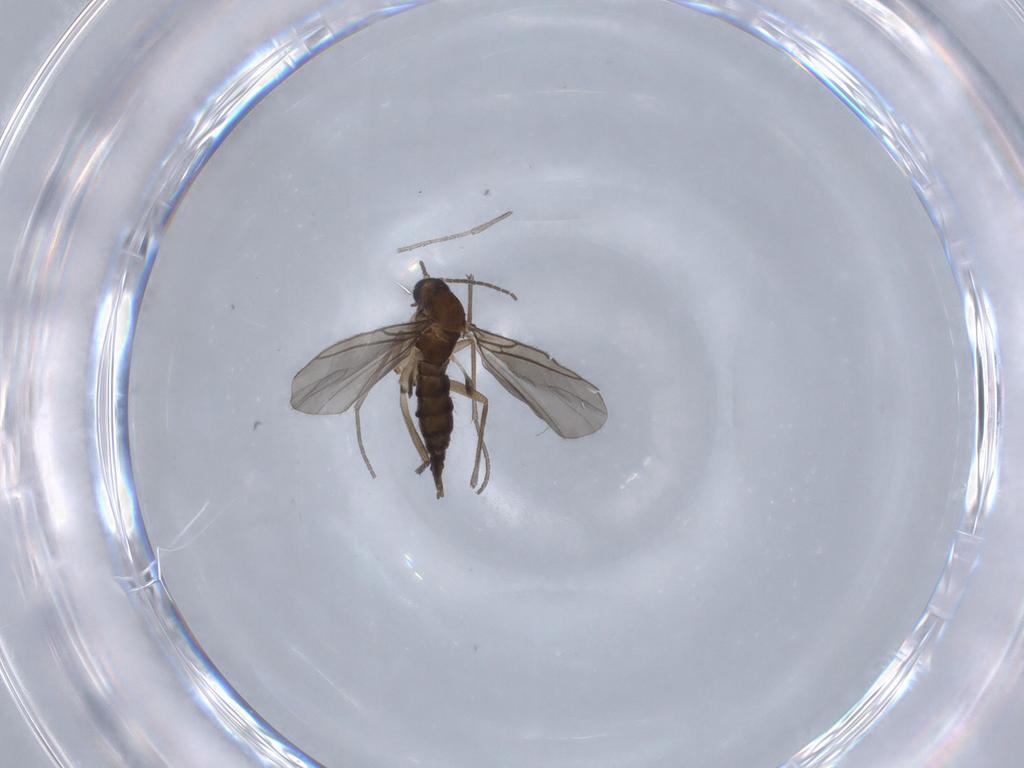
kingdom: Animalia
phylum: Arthropoda
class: Insecta
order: Diptera
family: Sciaridae
